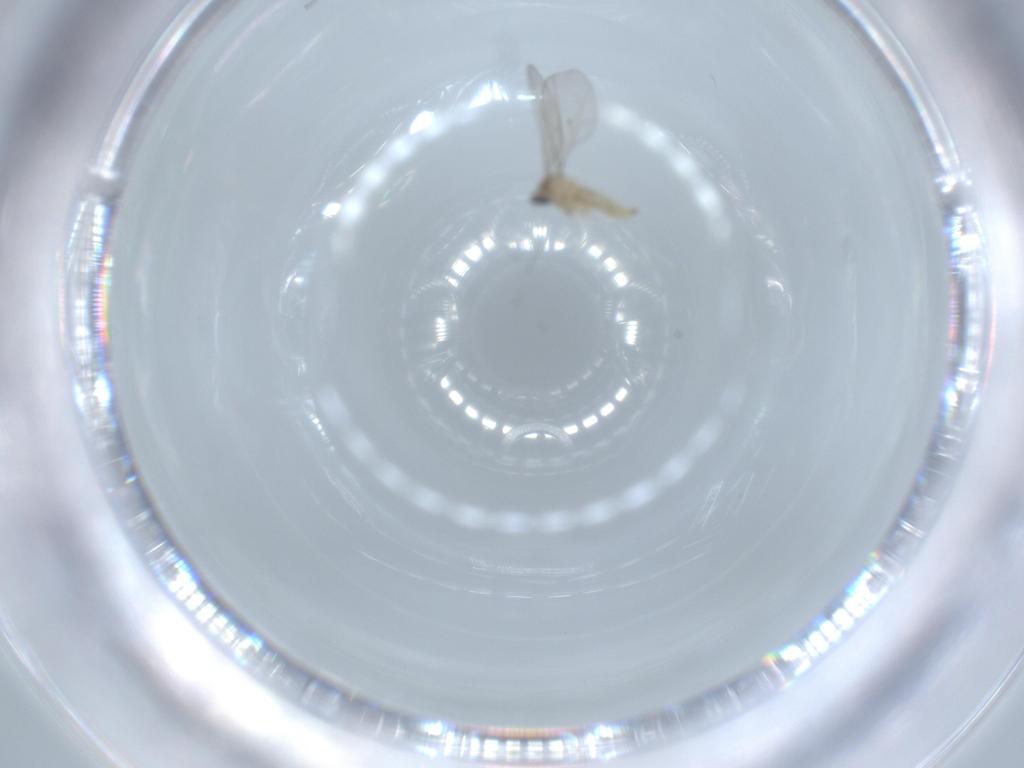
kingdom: Animalia
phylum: Arthropoda
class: Insecta
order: Diptera
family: Cecidomyiidae
